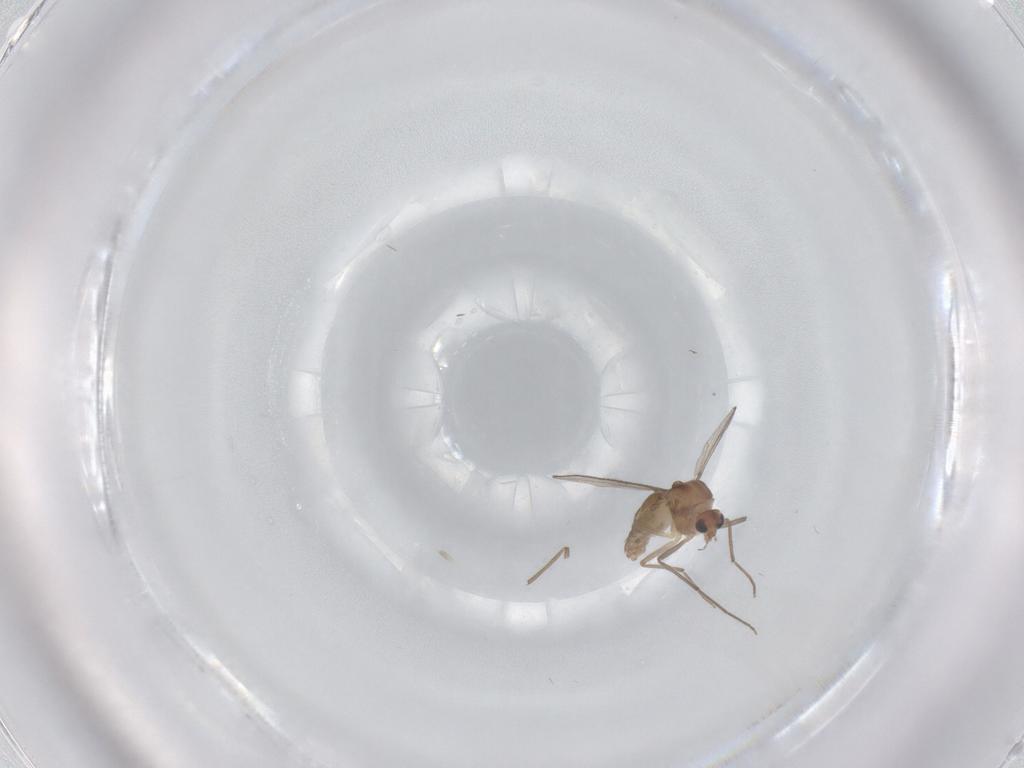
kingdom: Animalia
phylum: Arthropoda
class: Insecta
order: Diptera
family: Chironomidae
